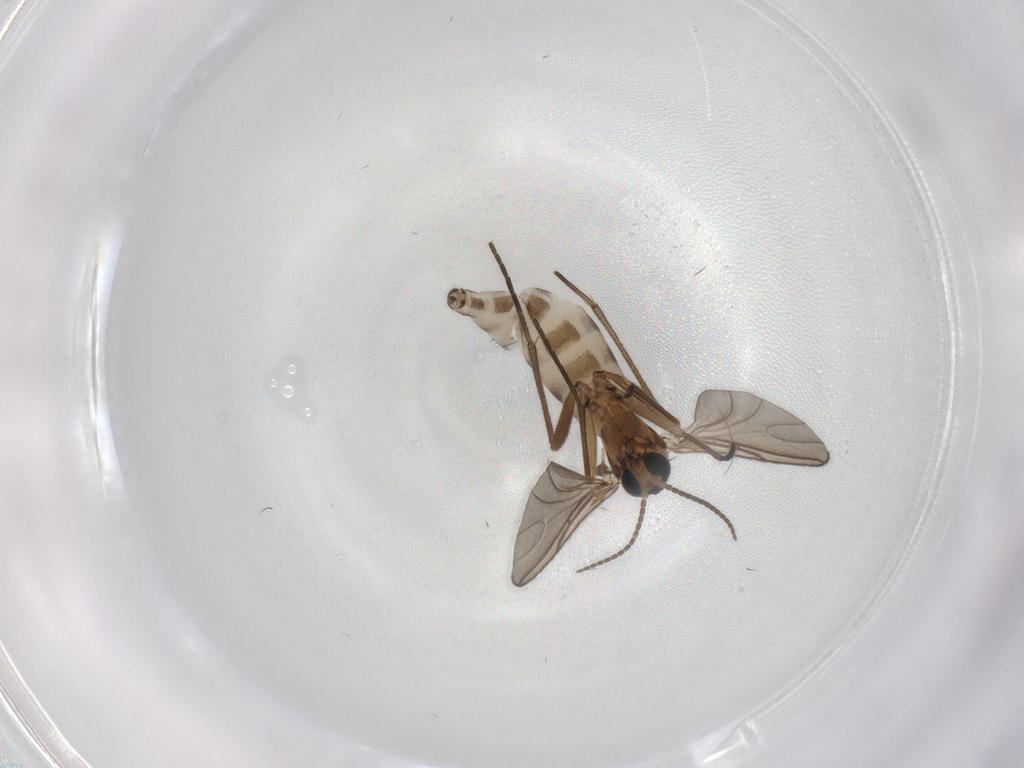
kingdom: Animalia
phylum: Arthropoda
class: Insecta
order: Diptera
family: Sciaridae
